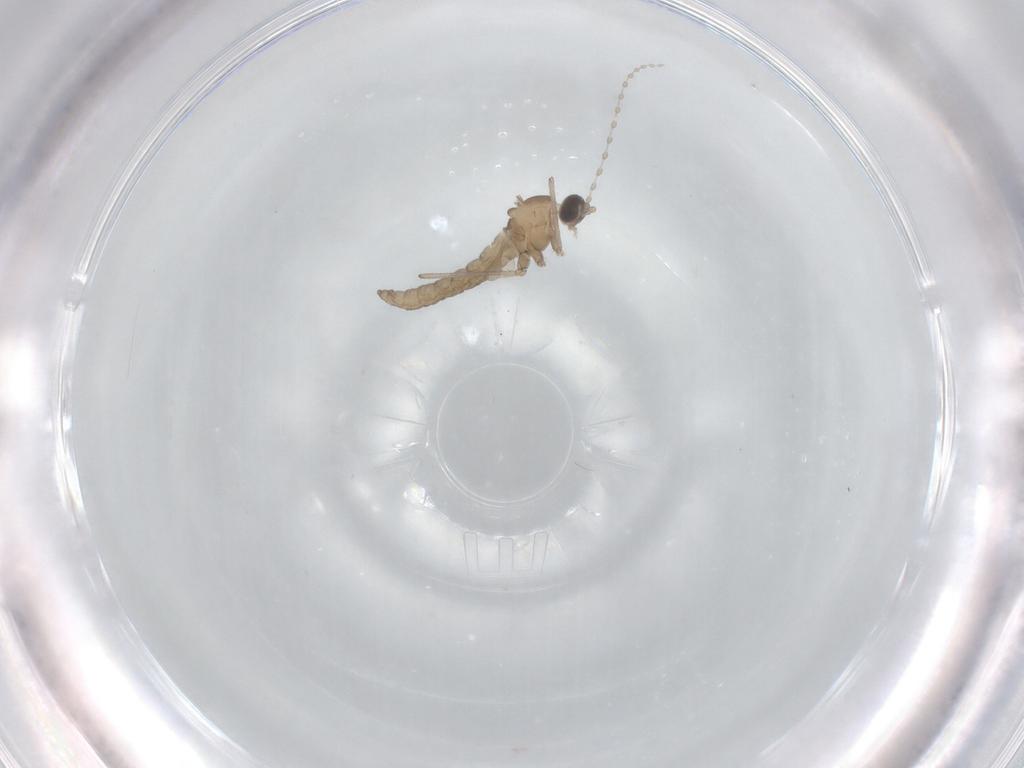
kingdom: Animalia
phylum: Arthropoda
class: Insecta
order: Diptera
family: Cecidomyiidae
